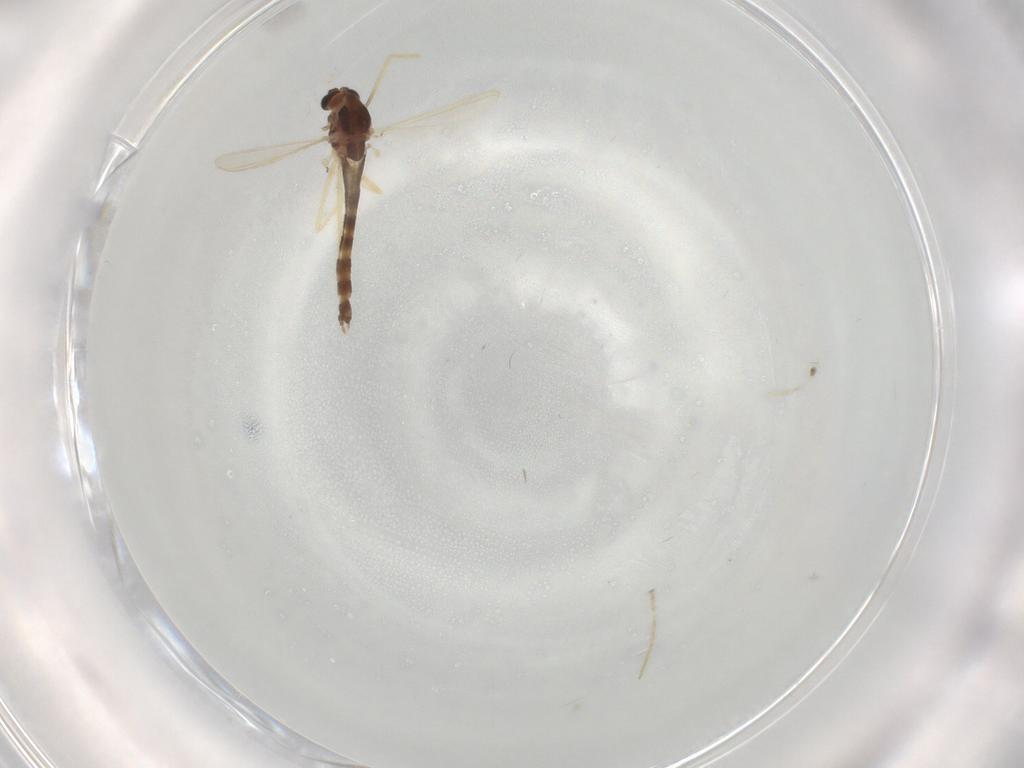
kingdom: Animalia
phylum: Arthropoda
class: Insecta
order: Diptera
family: Chironomidae
